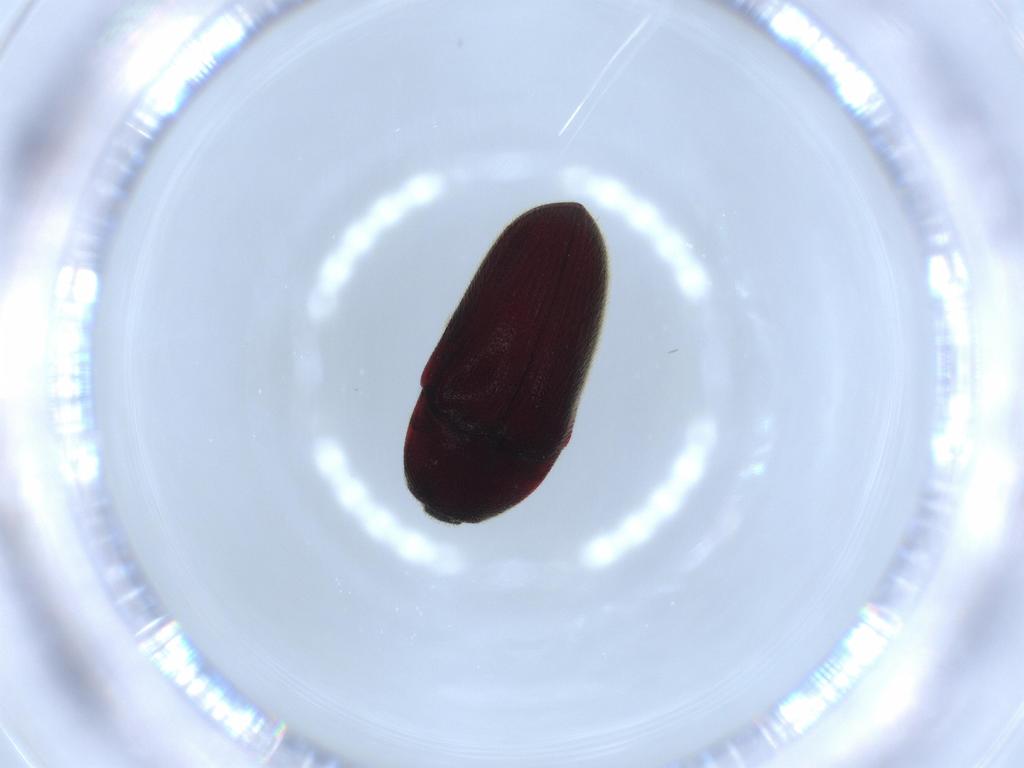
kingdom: Animalia
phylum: Arthropoda
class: Insecta
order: Coleoptera
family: Throscidae
